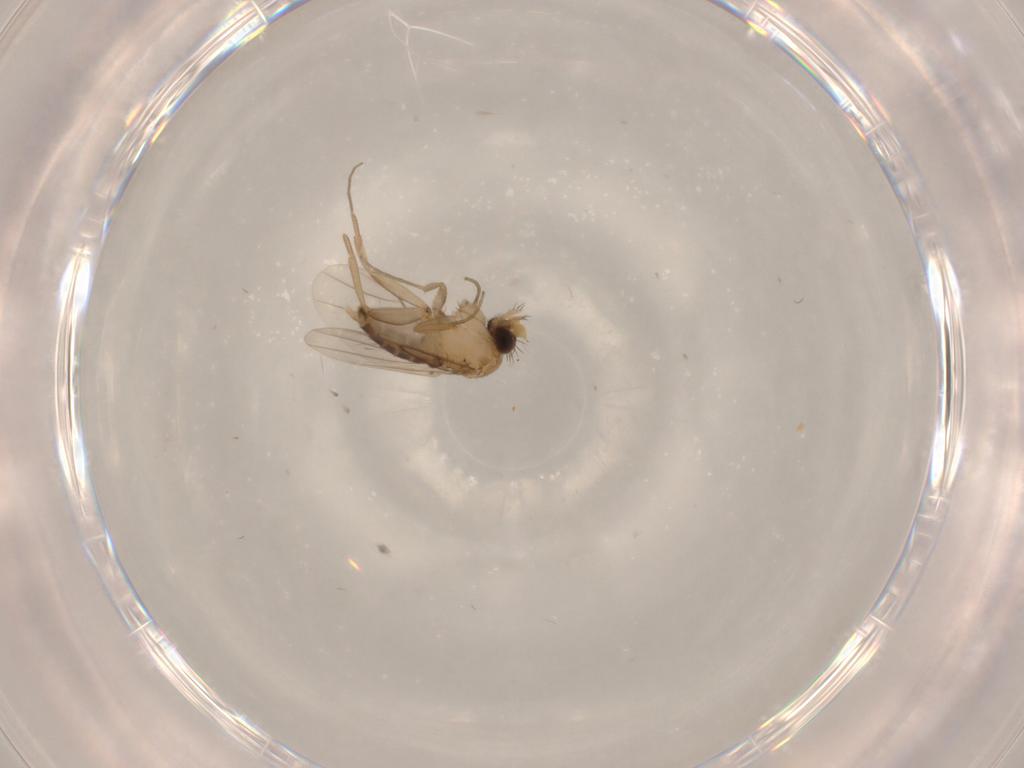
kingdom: Animalia
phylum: Arthropoda
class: Insecta
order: Diptera
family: Phoridae
